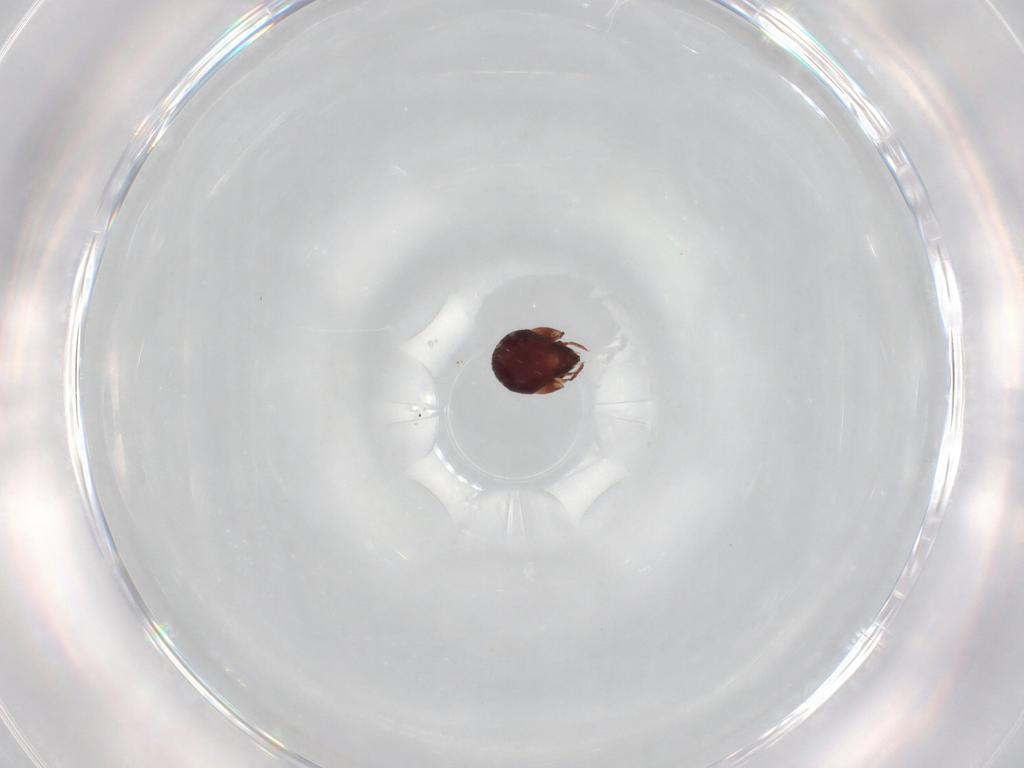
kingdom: Animalia
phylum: Arthropoda
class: Arachnida
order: Sarcoptiformes
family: Humerobatidae
